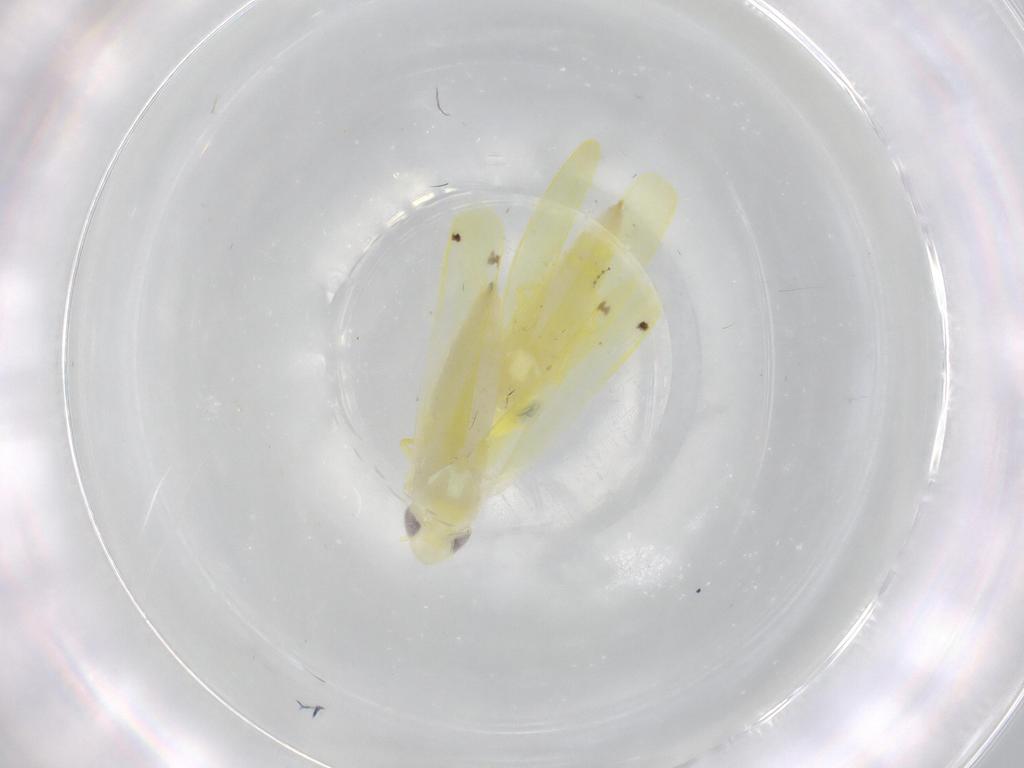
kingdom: Animalia
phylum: Arthropoda
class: Insecta
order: Hemiptera
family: Cicadellidae
